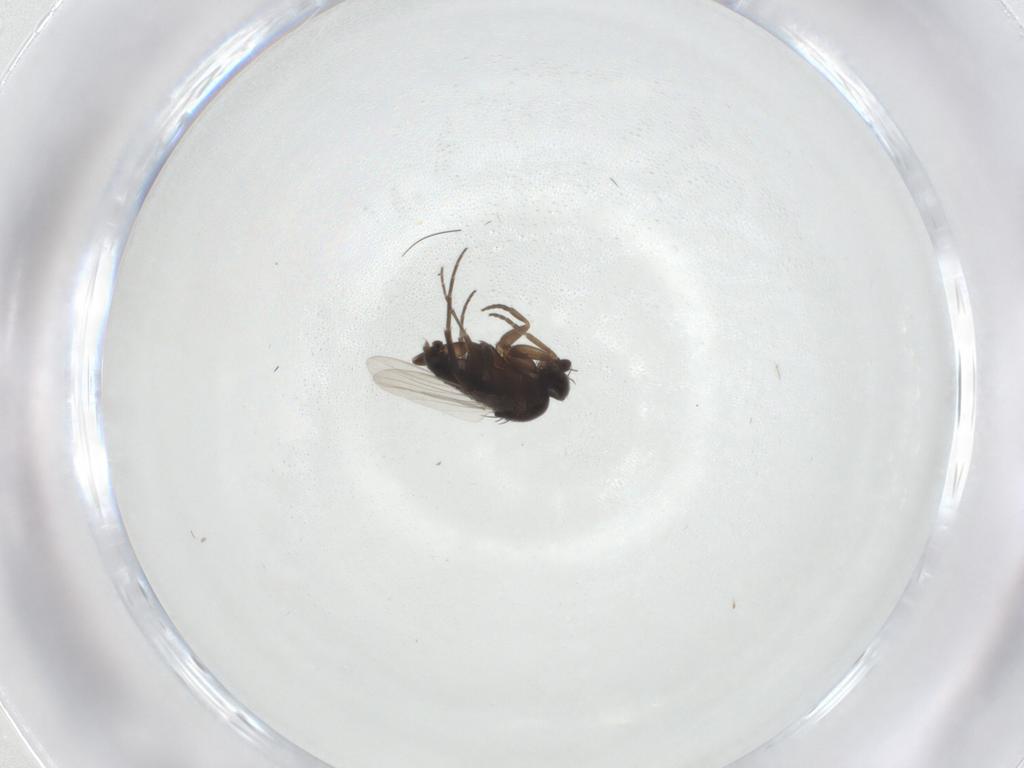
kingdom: Animalia
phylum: Arthropoda
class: Insecta
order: Diptera
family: Phoridae
